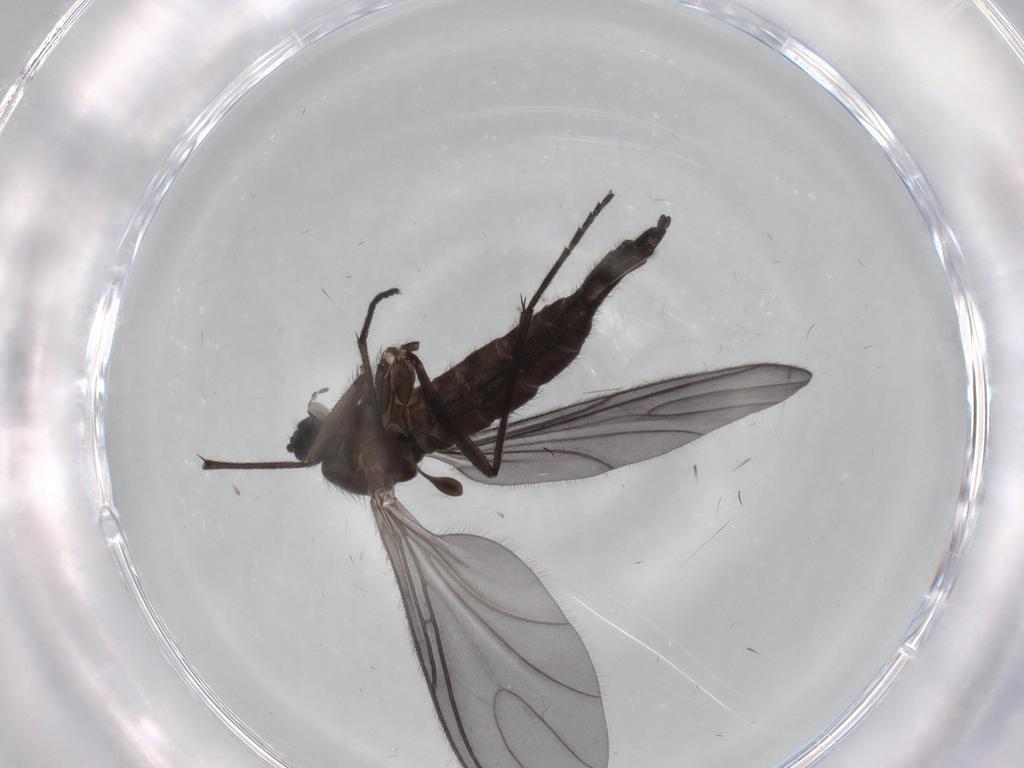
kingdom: Animalia
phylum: Arthropoda
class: Insecta
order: Diptera
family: Sciaridae
